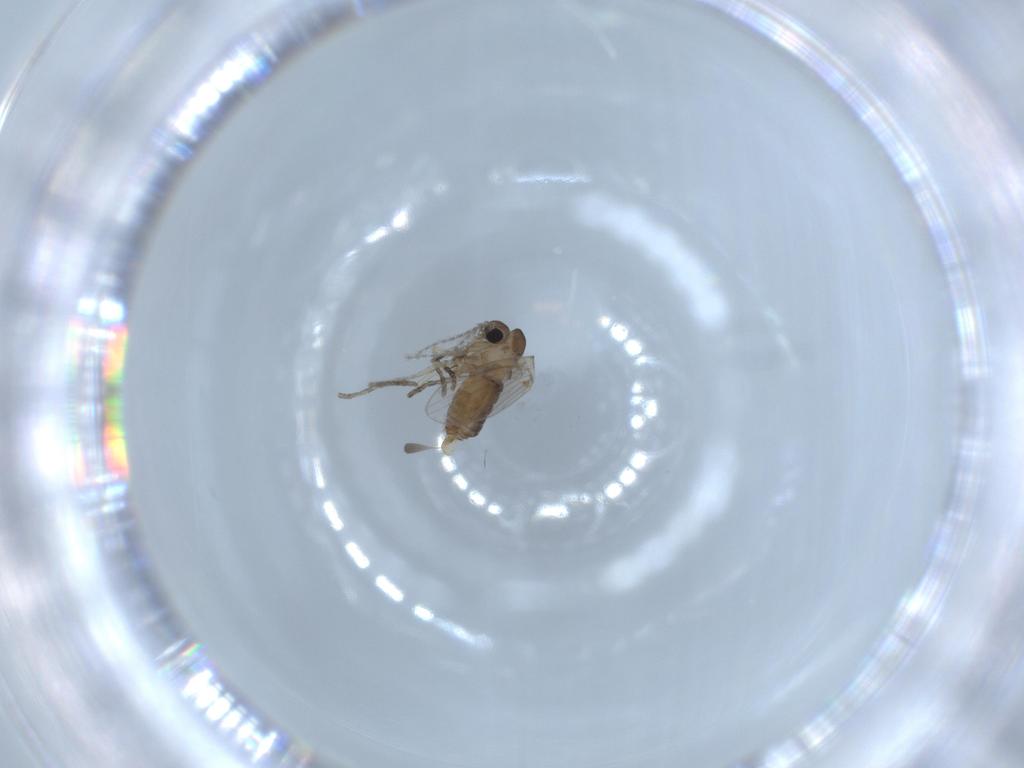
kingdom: Animalia
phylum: Arthropoda
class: Insecta
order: Diptera
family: Psychodidae
